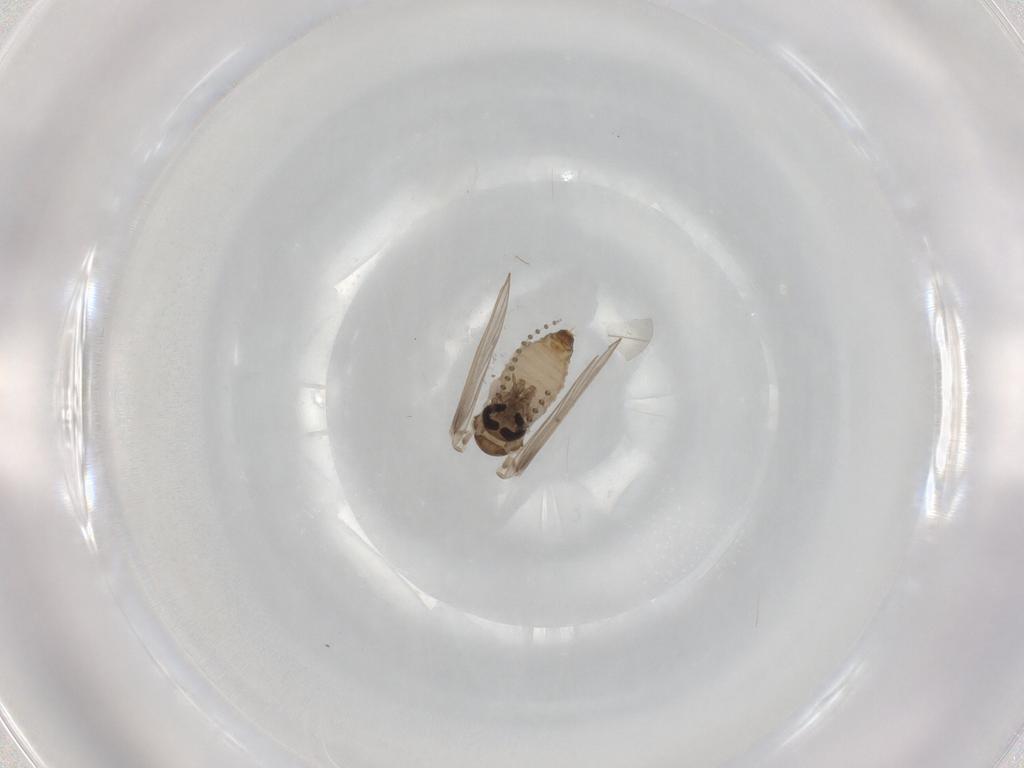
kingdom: Animalia
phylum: Arthropoda
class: Insecta
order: Diptera
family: Psychodidae
